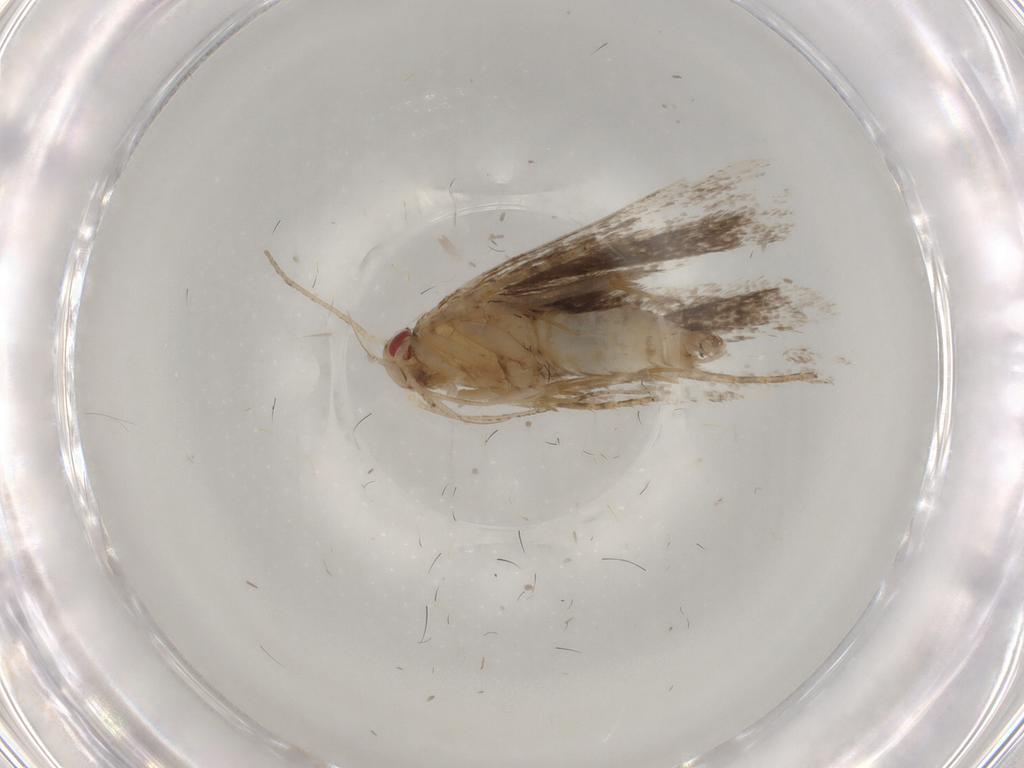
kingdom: Animalia
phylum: Arthropoda
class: Insecta
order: Lepidoptera
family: Gelechiidae
